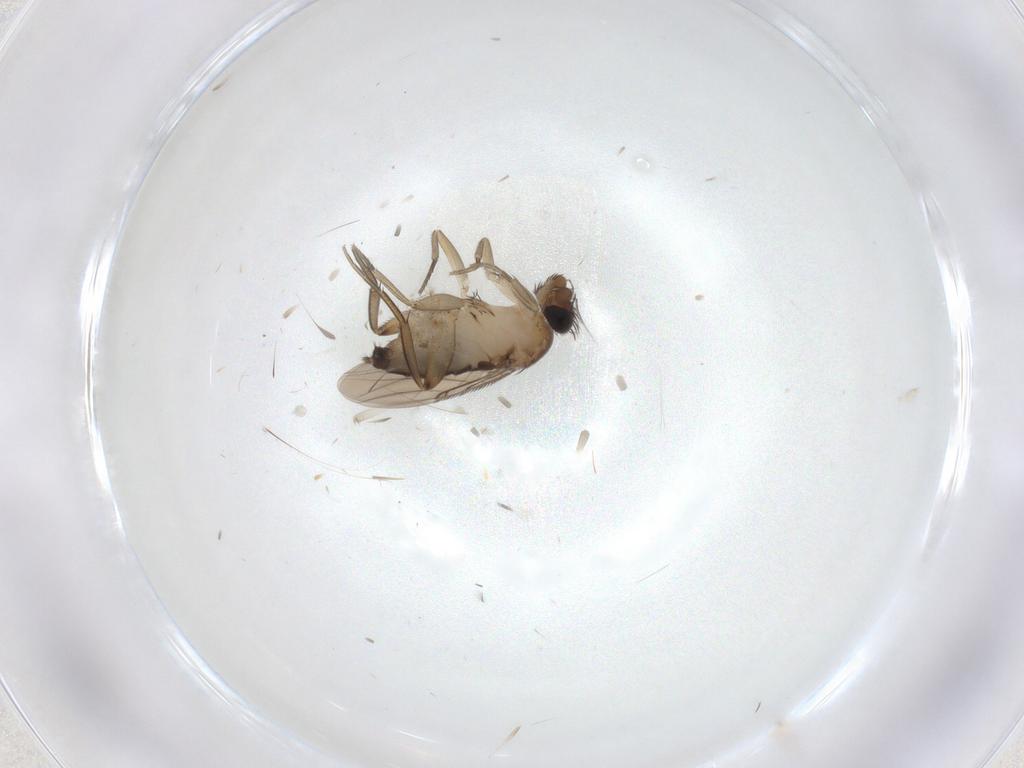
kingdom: Animalia
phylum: Arthropoda
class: Insecta
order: Diptera
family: Phoridae
